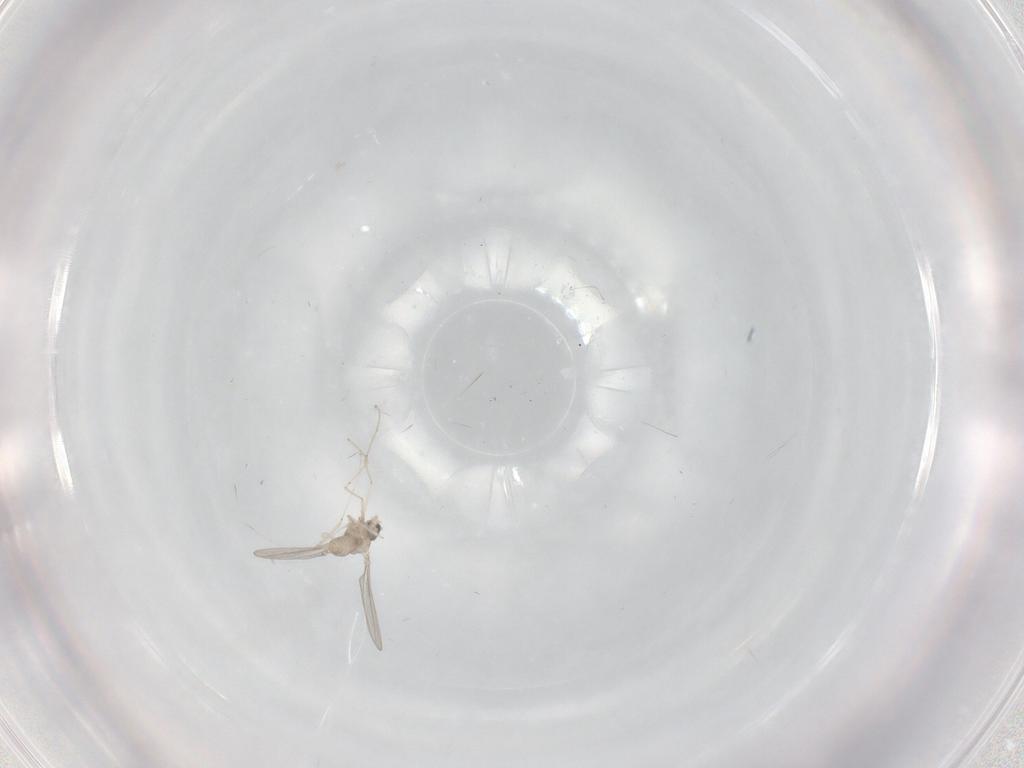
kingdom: Animalia
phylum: Arthropoda
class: Insecta
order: Diptera
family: Cecidomyiidae
